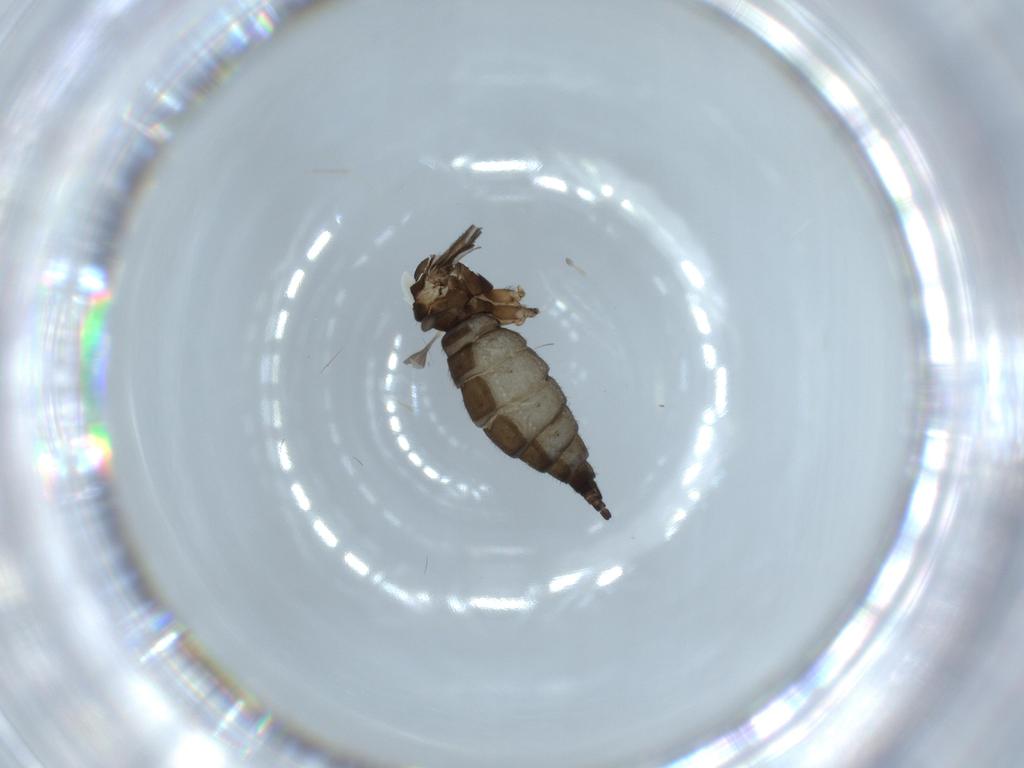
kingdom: Animalia
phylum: Arthropoda
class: Insecta
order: Diptera
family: Sciaridae
